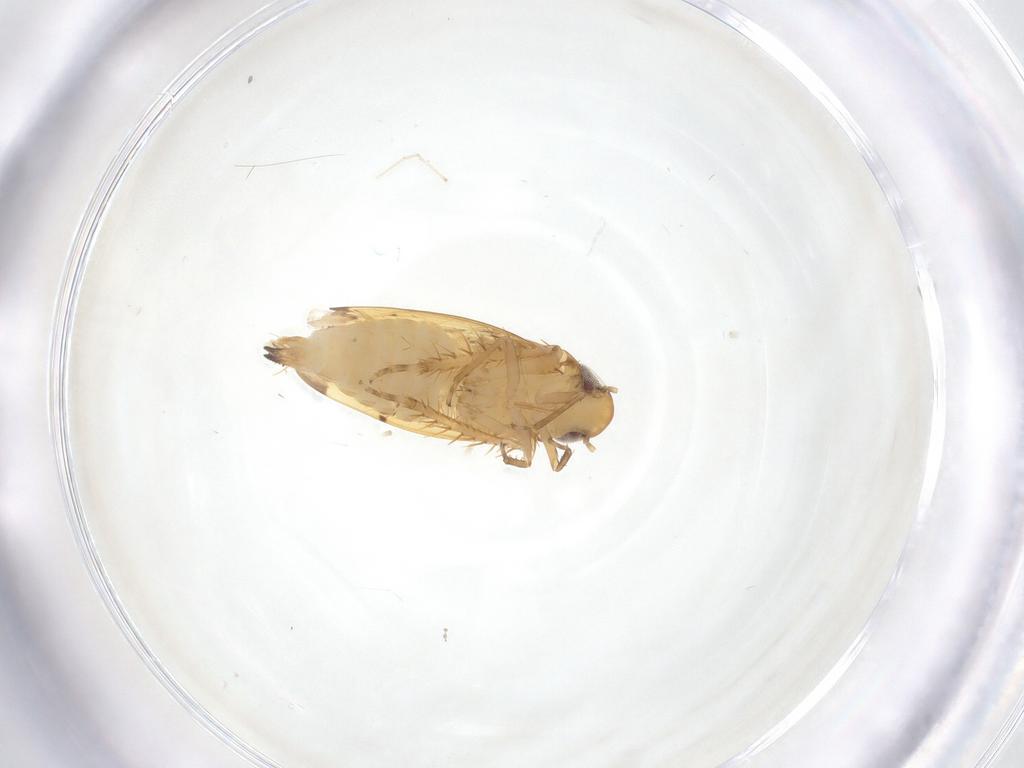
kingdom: Animalia
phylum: Arthropoda
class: Insecta
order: Hemiptera
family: Cicadellidae
